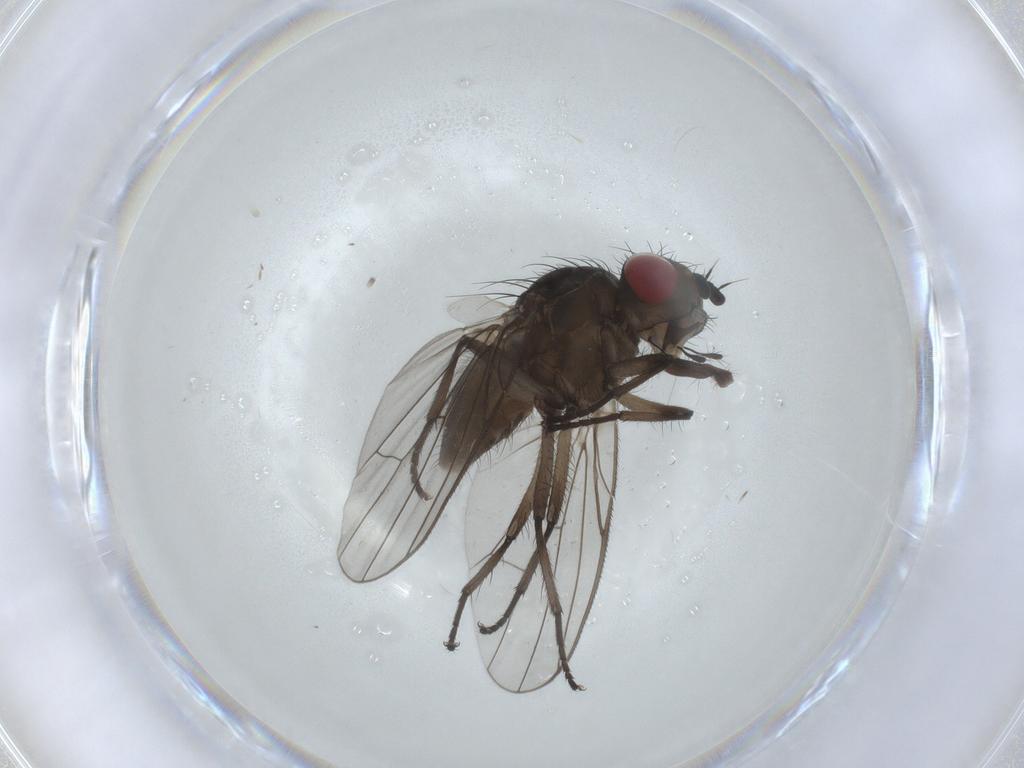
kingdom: Animalia
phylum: Arthropoda
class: Insecta
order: Diptera
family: Anthomyiidae
